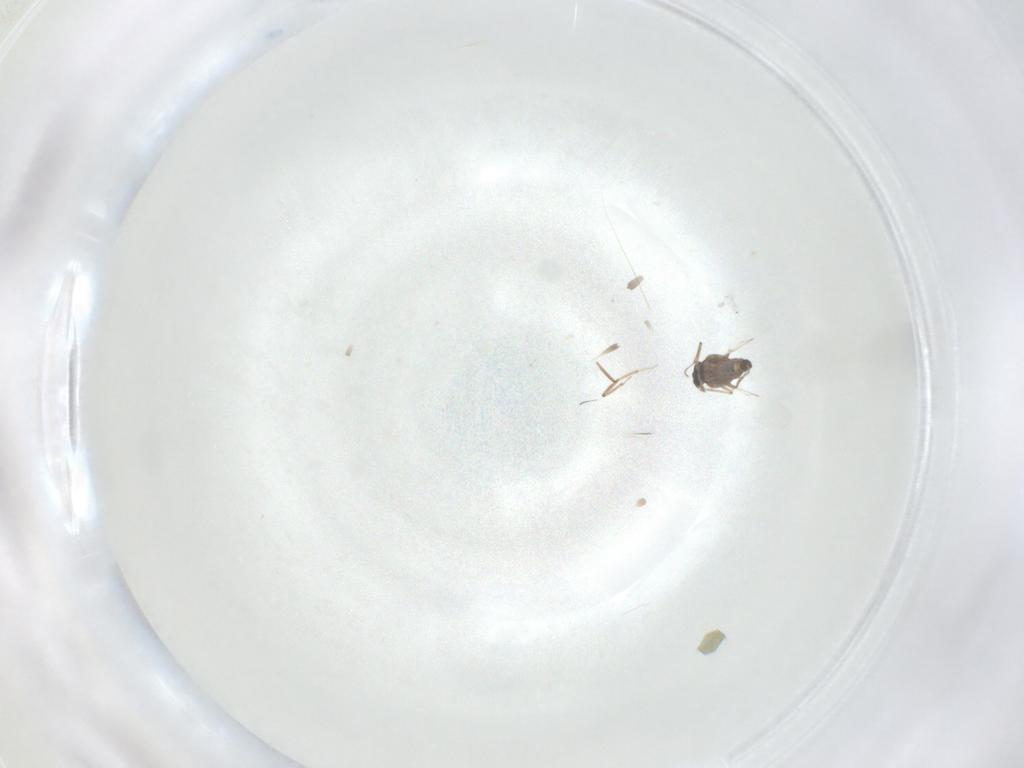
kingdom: Animalia
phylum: Arthropoda
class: Insecta
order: Diptera
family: Ceratopogonidae
